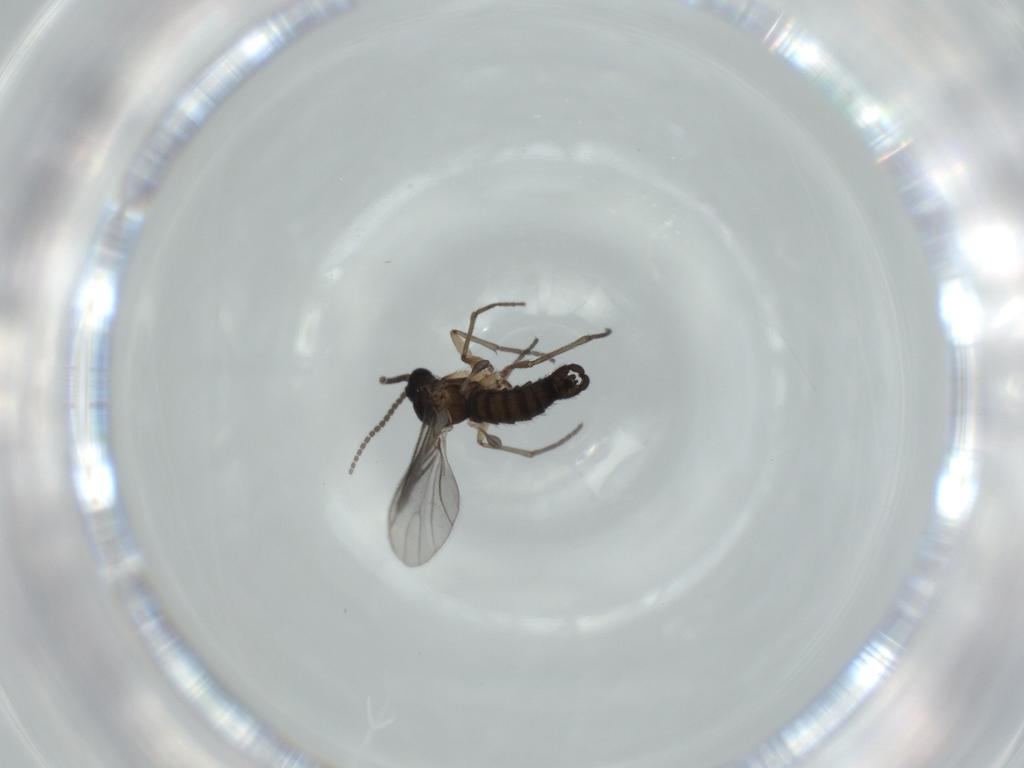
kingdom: Animalia
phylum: Arthropoda
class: Insecta
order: Diptera
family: Sciaridae
